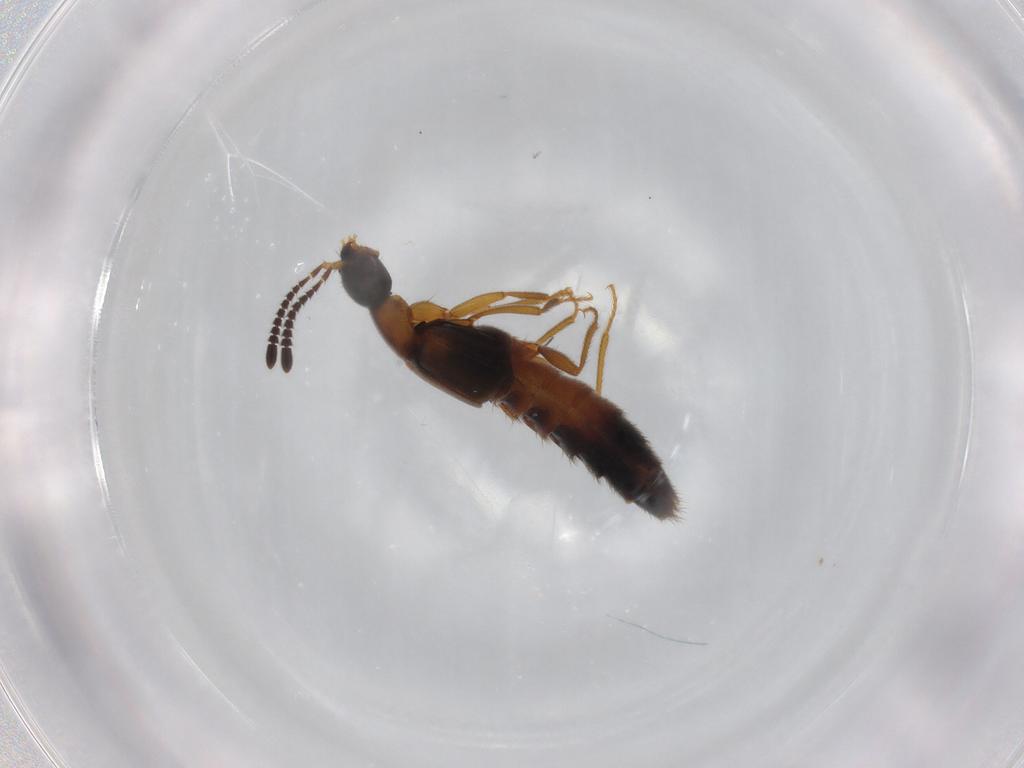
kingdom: Animalia
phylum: Arthropoda
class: Insecta
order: Coleoptera
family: Staphylinidae
